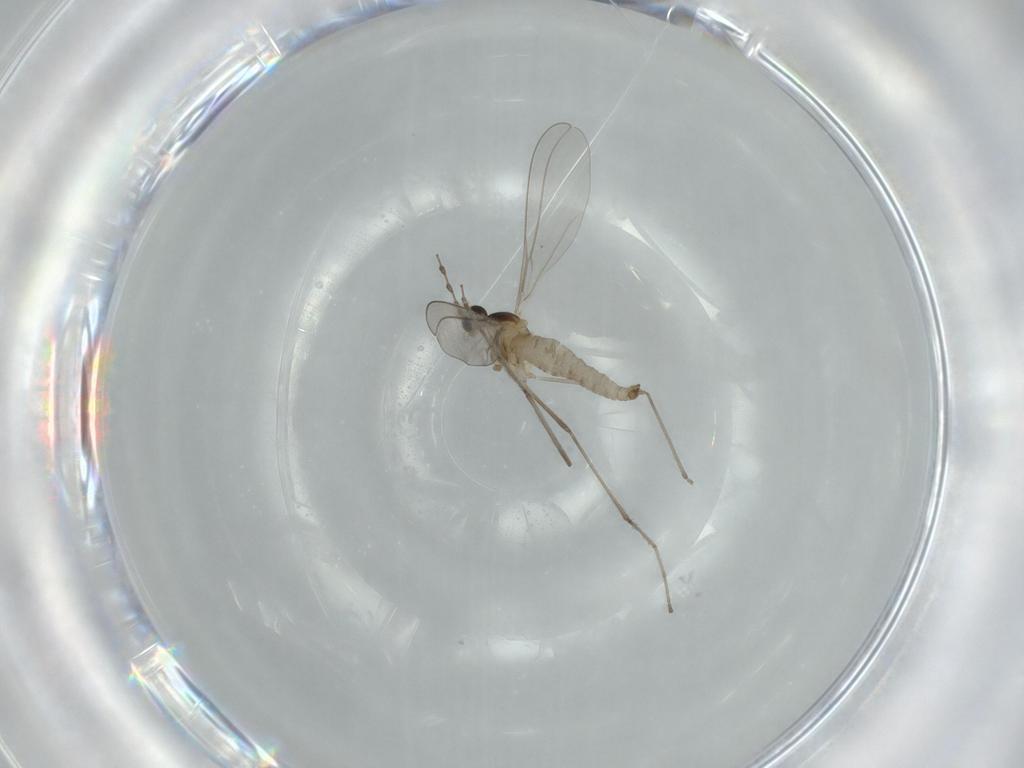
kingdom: Animalia
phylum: Arthropoda
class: Insecta
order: Diptera
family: Cecidomyiidae
